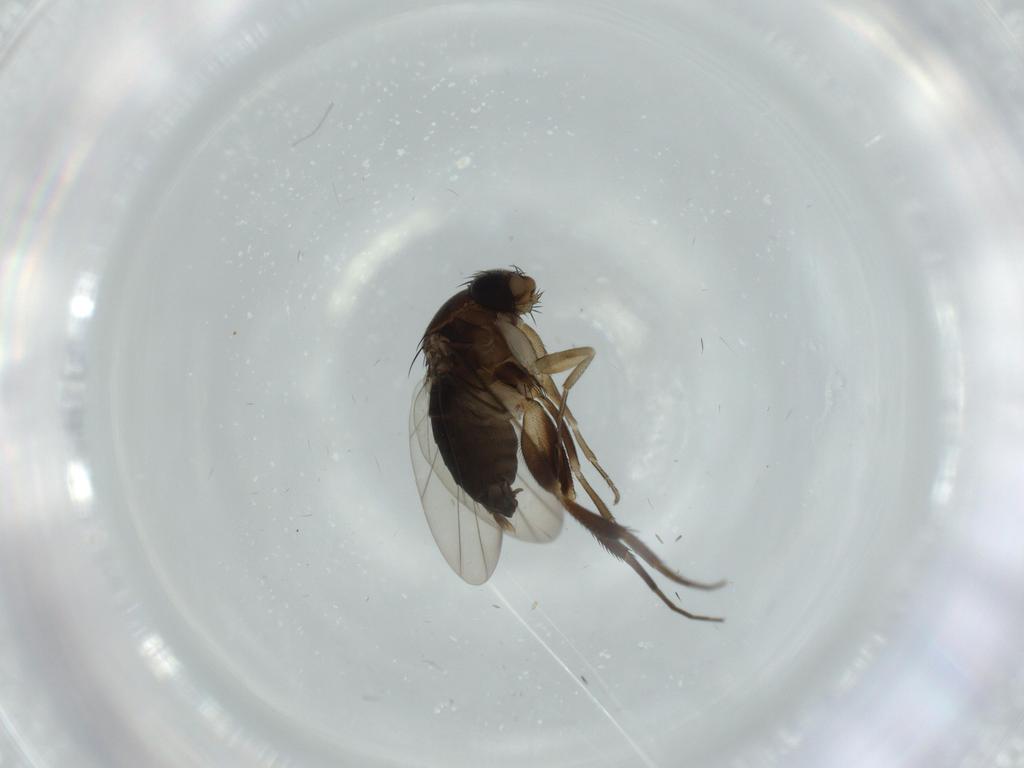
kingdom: Animalia
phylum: Arthropoda
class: Insecta
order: Diptera
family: Phoridae
